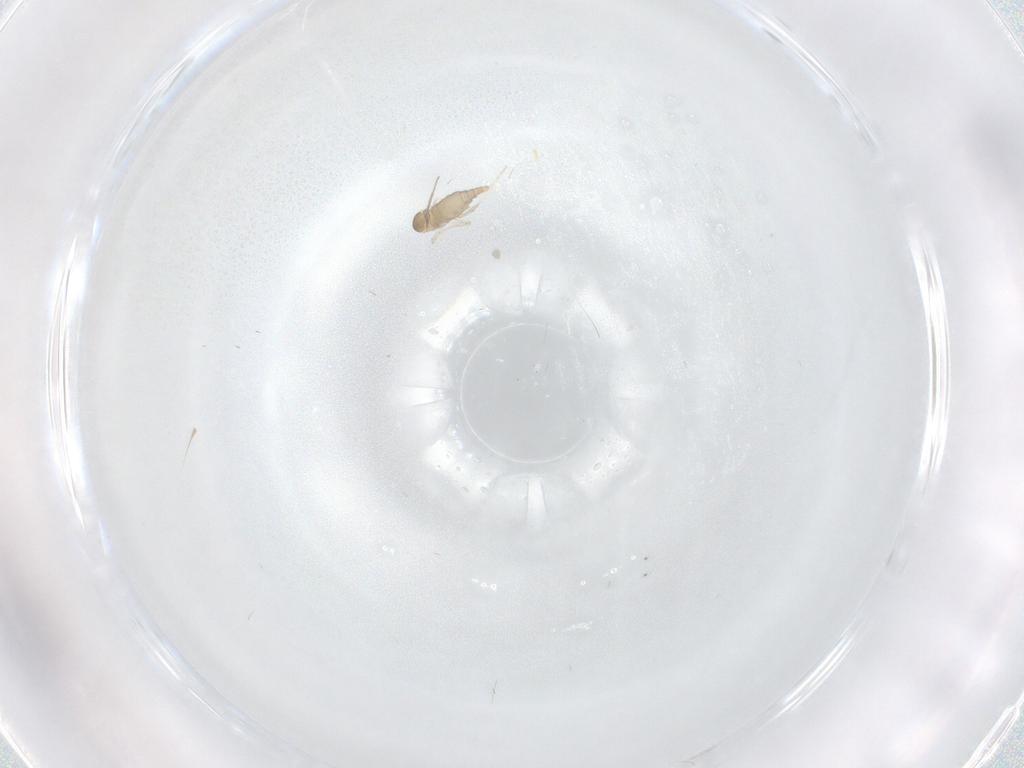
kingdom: Animalia
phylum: Arthropoda
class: Insecta
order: Diptera
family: Cecidomyiidae
